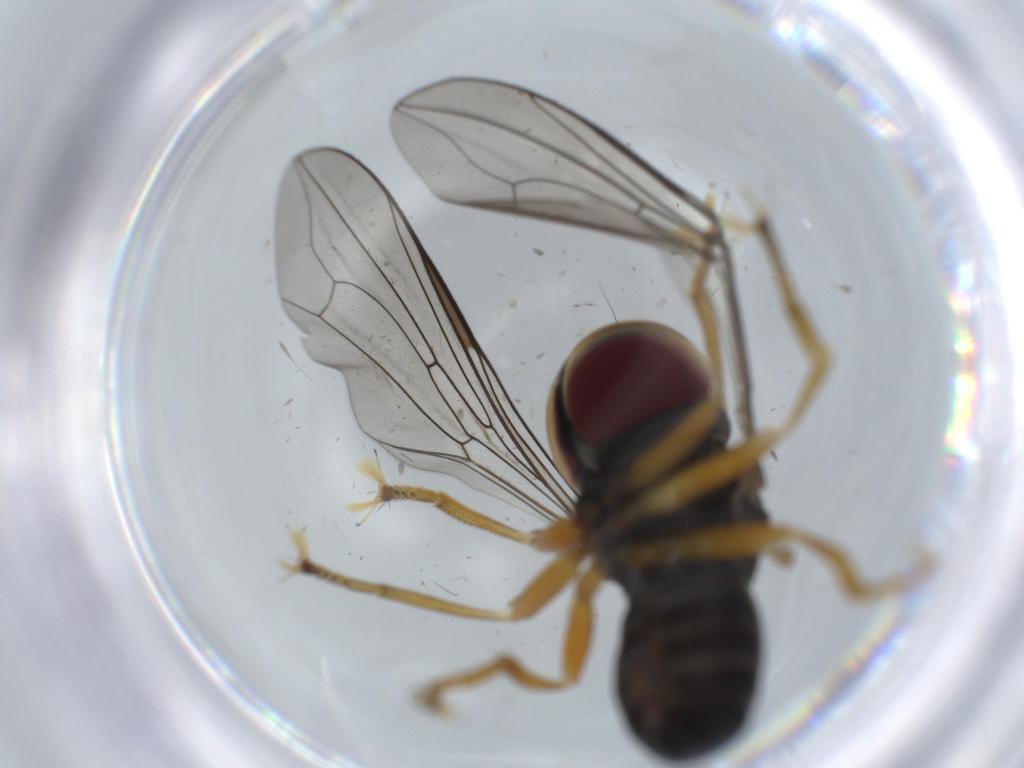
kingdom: Animalia
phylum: Arthropoda
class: Insecta
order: Diptera
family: Pipunculidae
